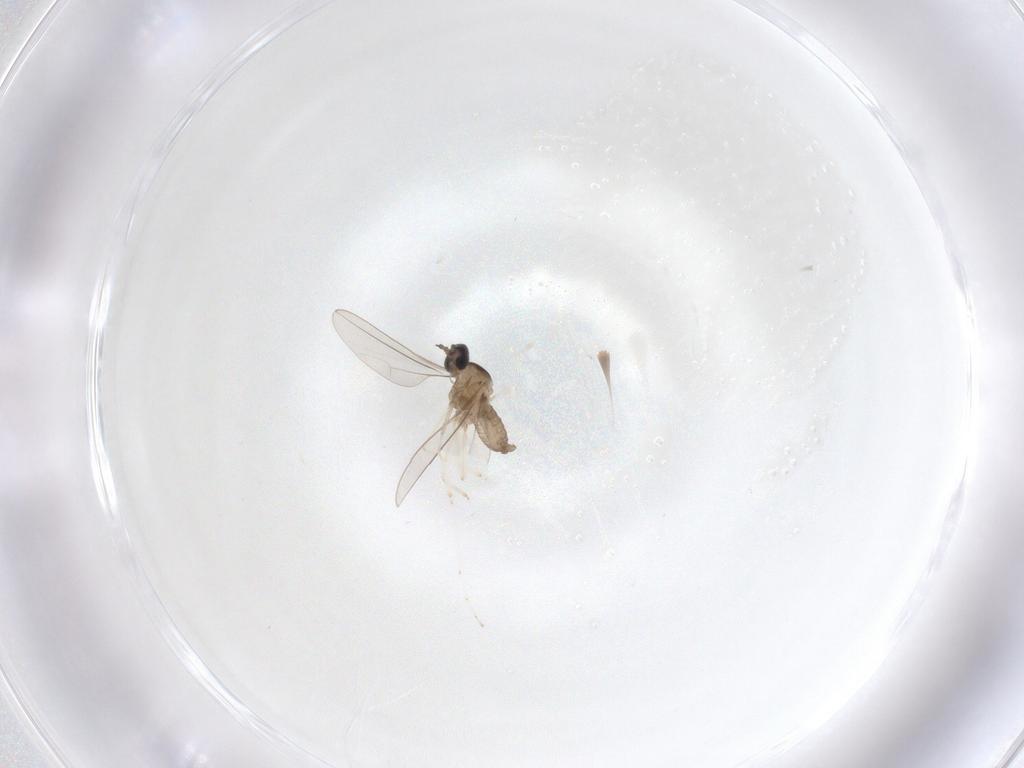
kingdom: Animalia
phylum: Arthropoda
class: Insecta
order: Diptera
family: Cecidomyiidae
